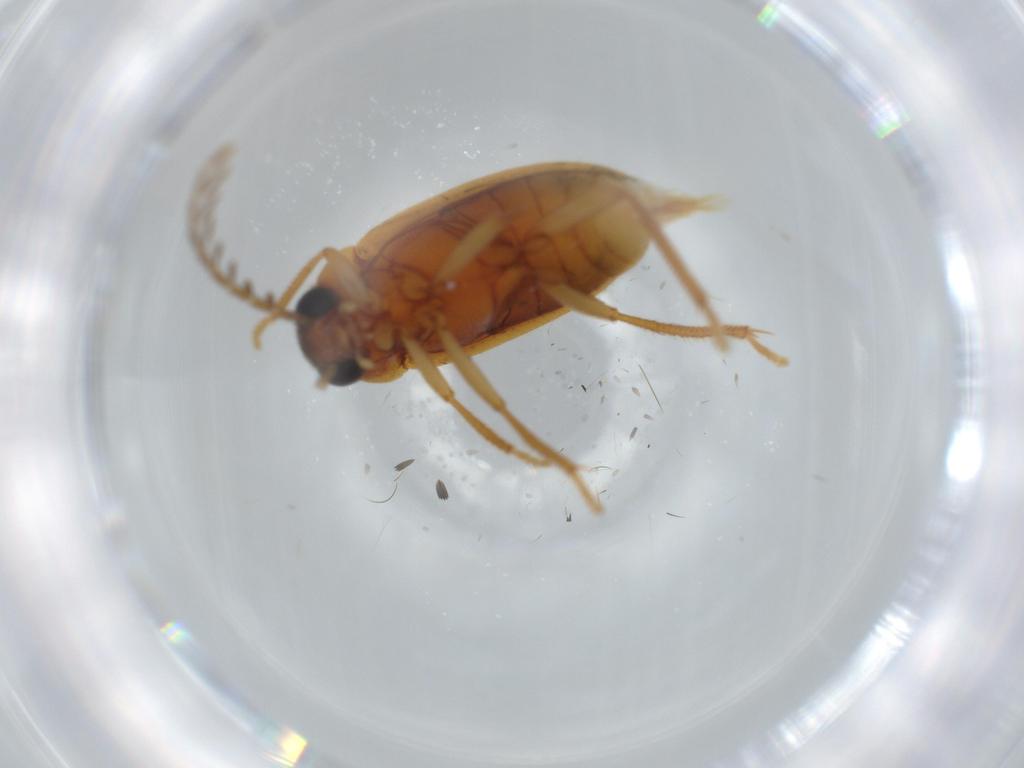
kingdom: Animalia
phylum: Arthropoda
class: Insecta
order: Coleoptera
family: Ptilodactylidae
